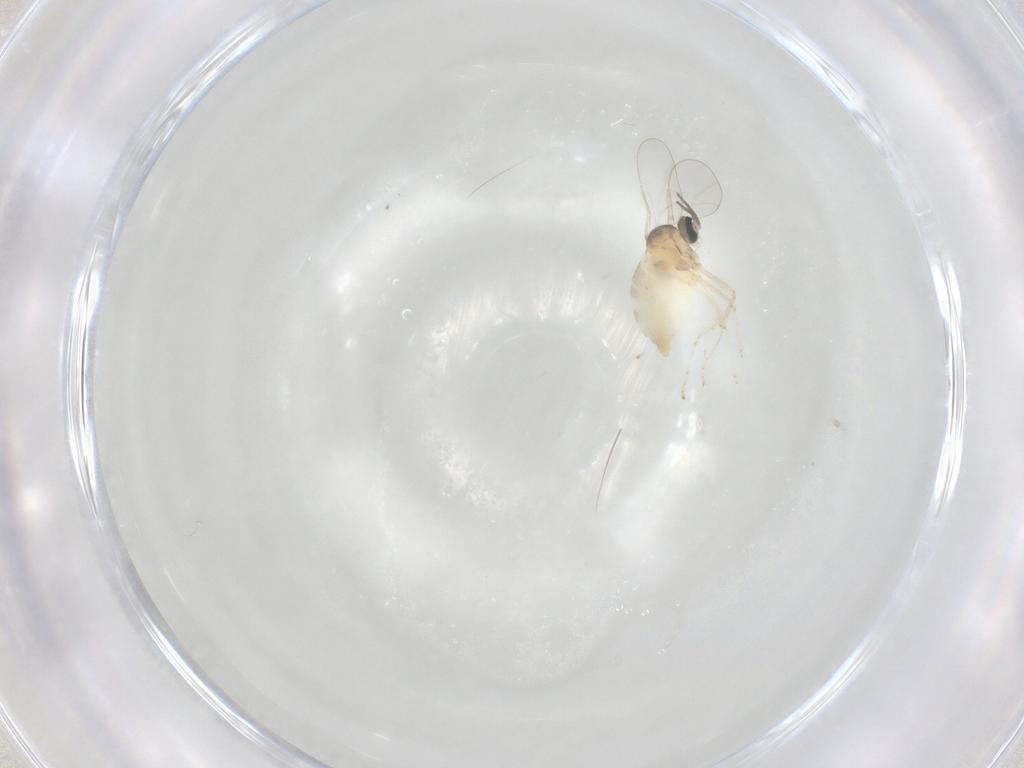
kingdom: Animalia
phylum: Arthropoda
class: Insecta
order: Diptera
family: Cecidomyiidae
